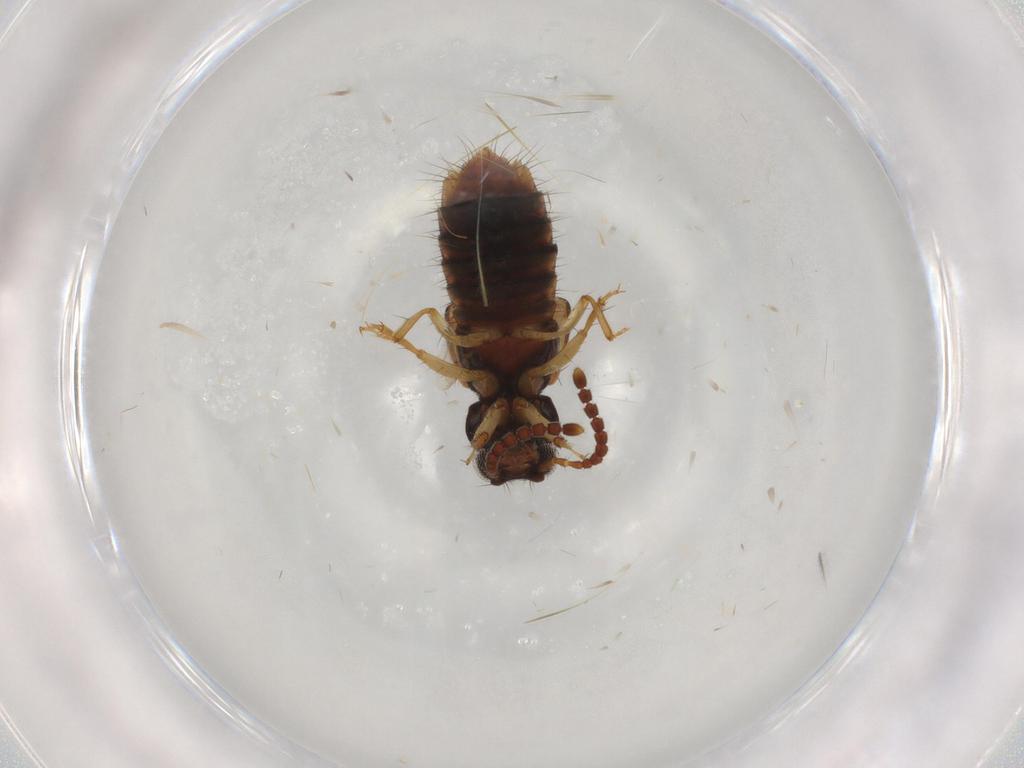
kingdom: Animalia
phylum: Arthropoda
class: Insecta
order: Coleoptera
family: Staphylinidae
